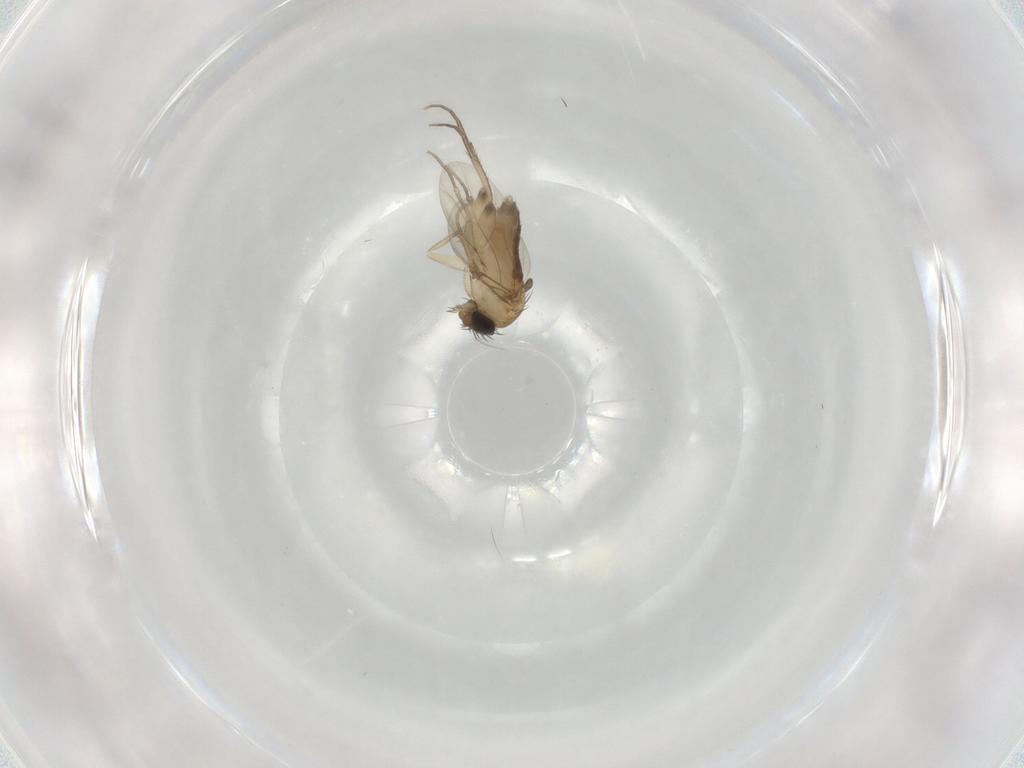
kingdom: Animalia
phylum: Arthropoda
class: Insecta
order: Diptera
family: Phoridae
